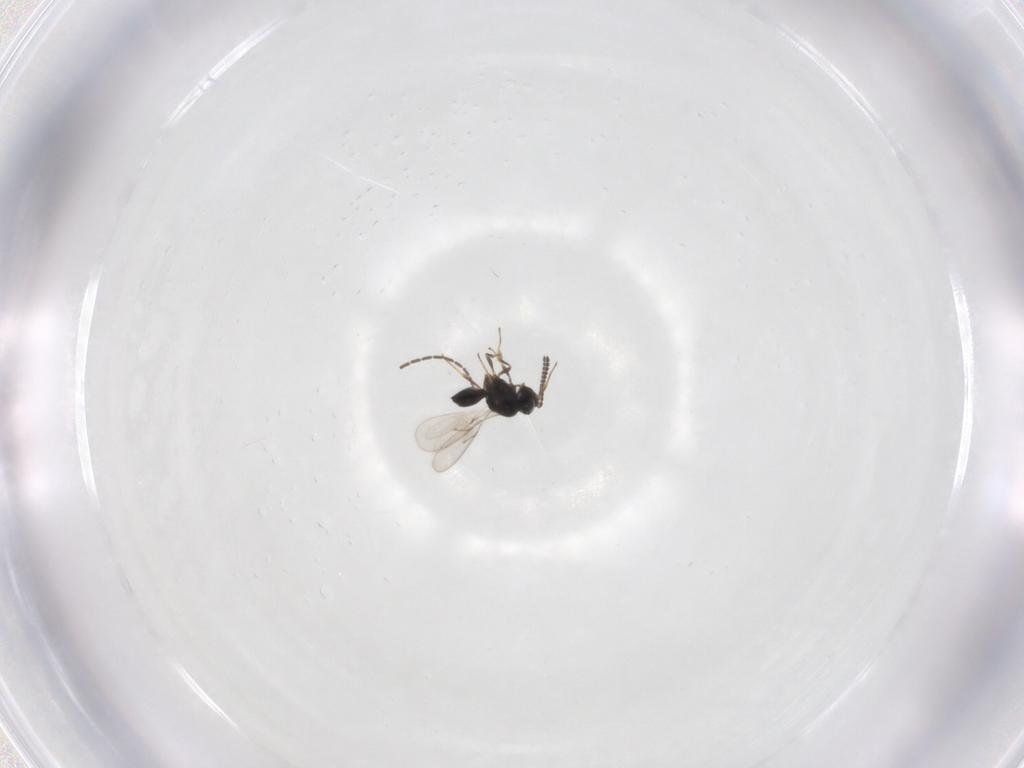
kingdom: Animalia
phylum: Arthropoda
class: Insecta
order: Hymenoptera
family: Scelionidae
